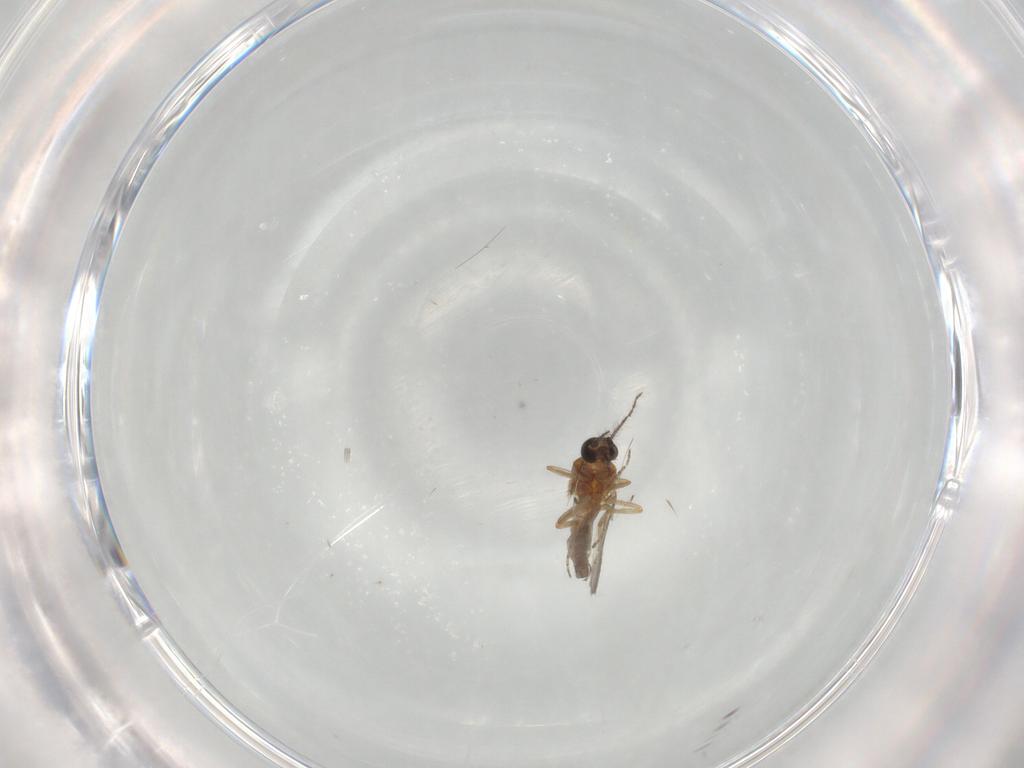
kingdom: Animalia
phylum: Arthropoda
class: Insecta
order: Diptera
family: Ceratopogonidae
